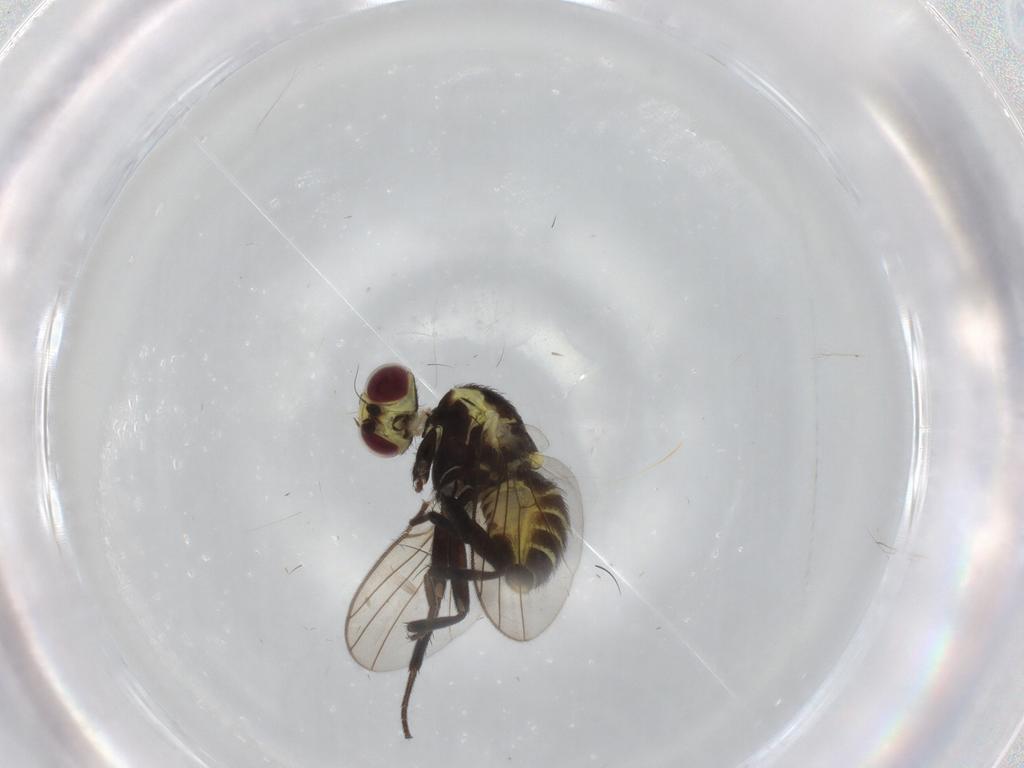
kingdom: Animalia
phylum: Arthropoda
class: Insecta
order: Diptera
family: Agromyzidae
